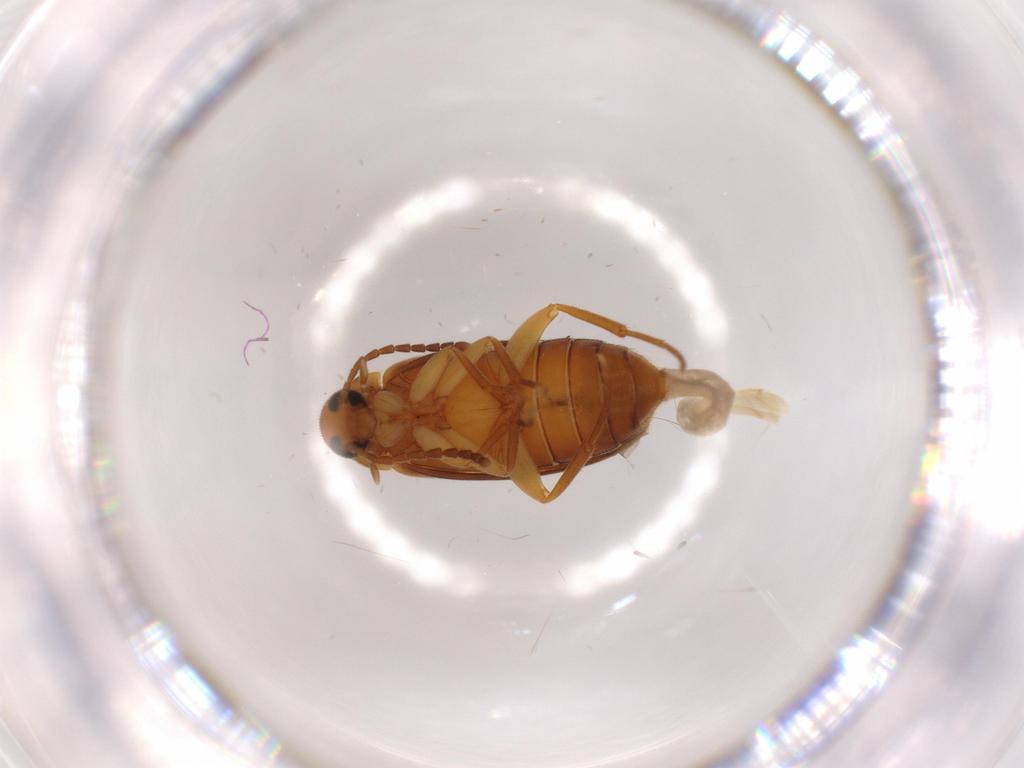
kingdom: Animalia
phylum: Arthropoda
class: Insecta
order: Coleoptera
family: Scraptiidae
